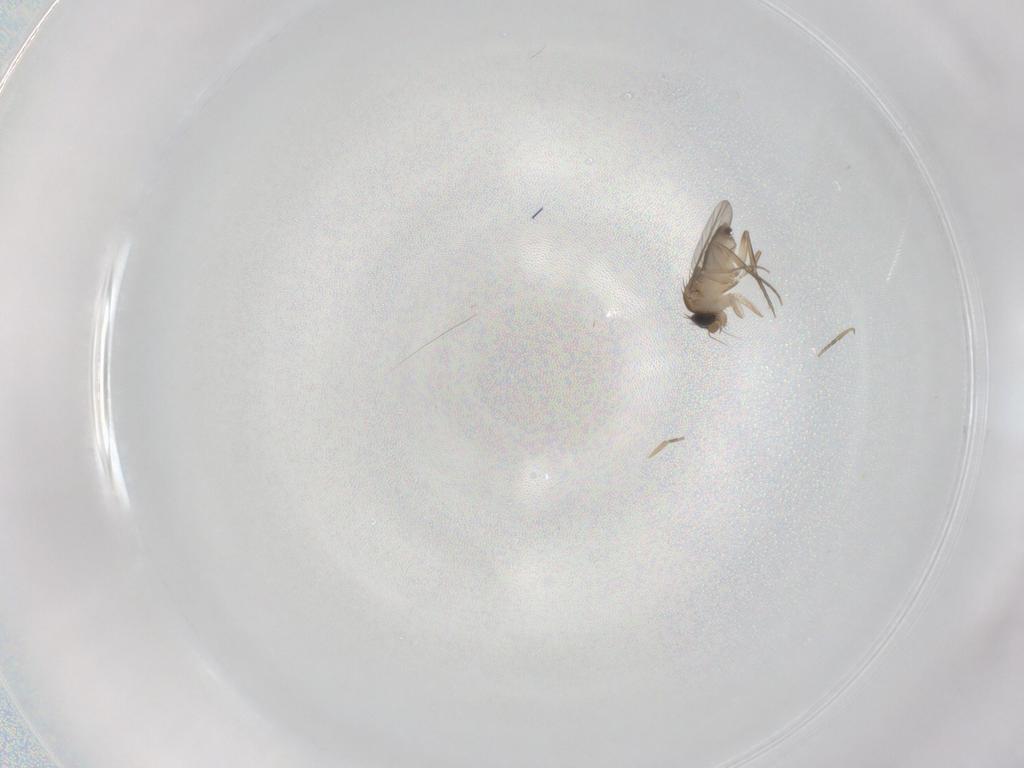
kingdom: Animalia
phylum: Arthropoda
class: Insecta
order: Diptera
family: Phoridae
